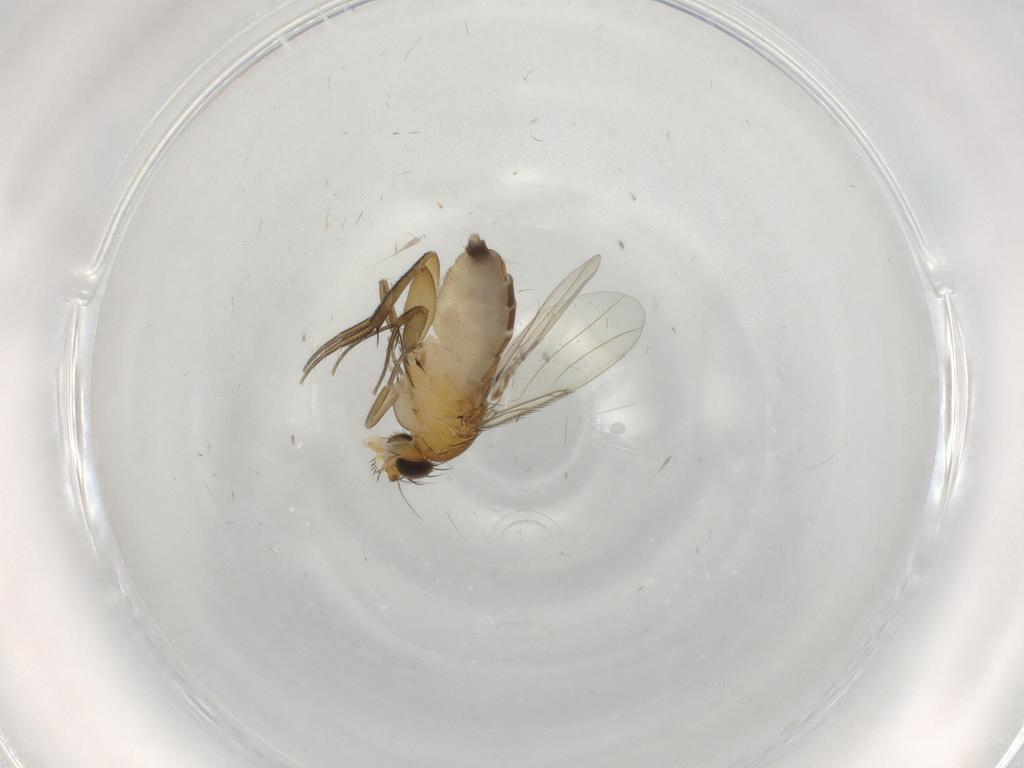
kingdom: Animalia
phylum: Arthropoda
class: Insecta
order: Diptera
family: Phoridae
